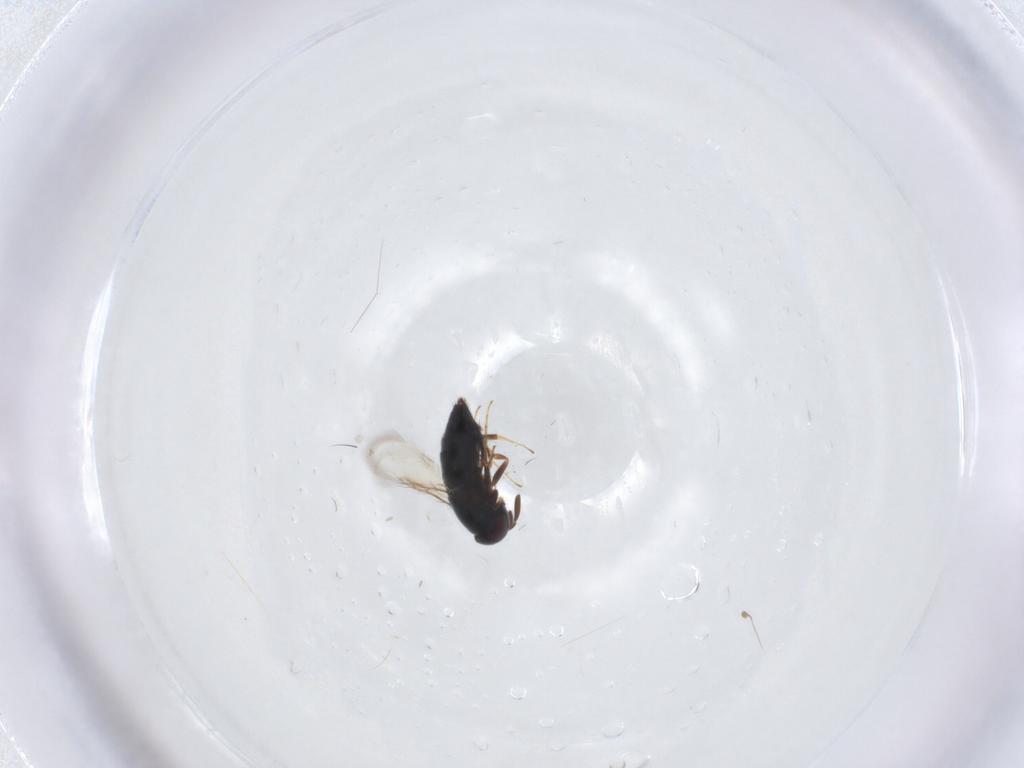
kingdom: Animalia
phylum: Arthropoda
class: Insecta
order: Hymenoptera
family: Signiphoridae
